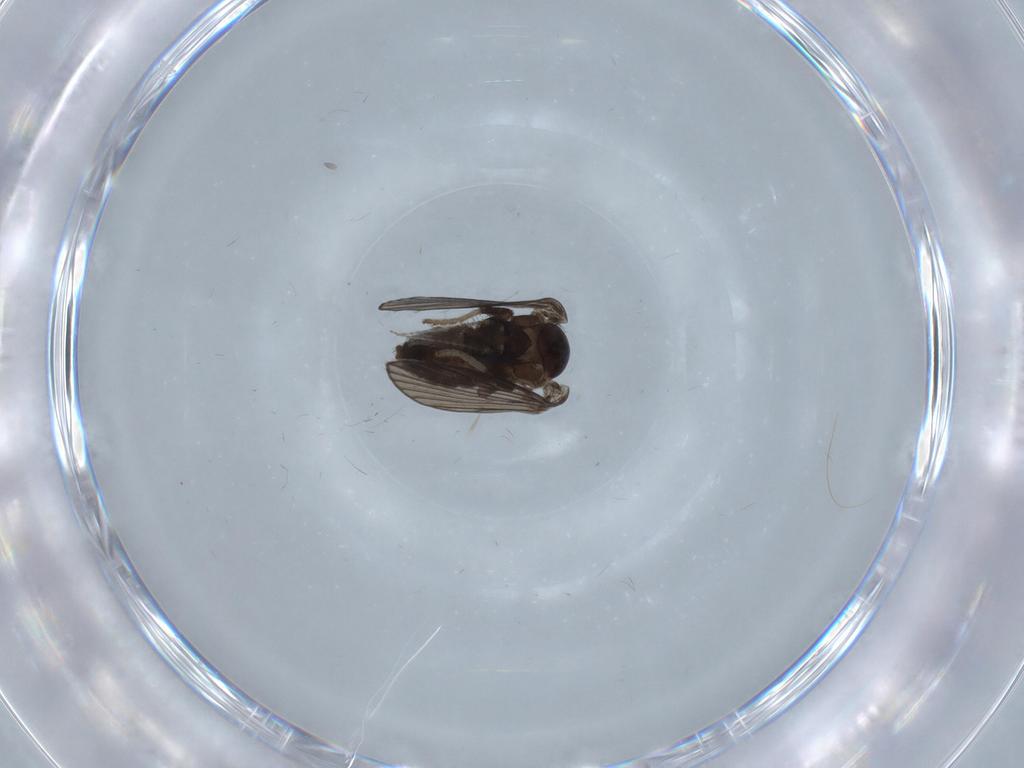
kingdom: Animalia
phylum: Arthropoda
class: Insecta
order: Diptera
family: Psychodidae
